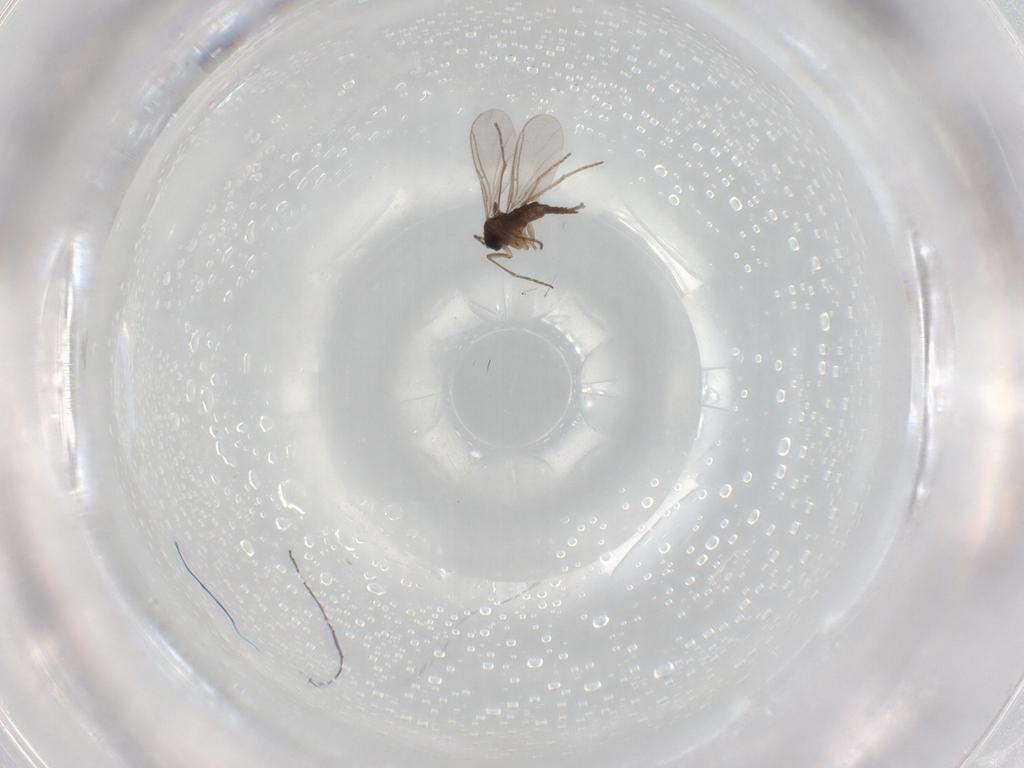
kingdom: Animalia
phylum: Arthropoda
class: Insecta
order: Diptera
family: Sciaridae
